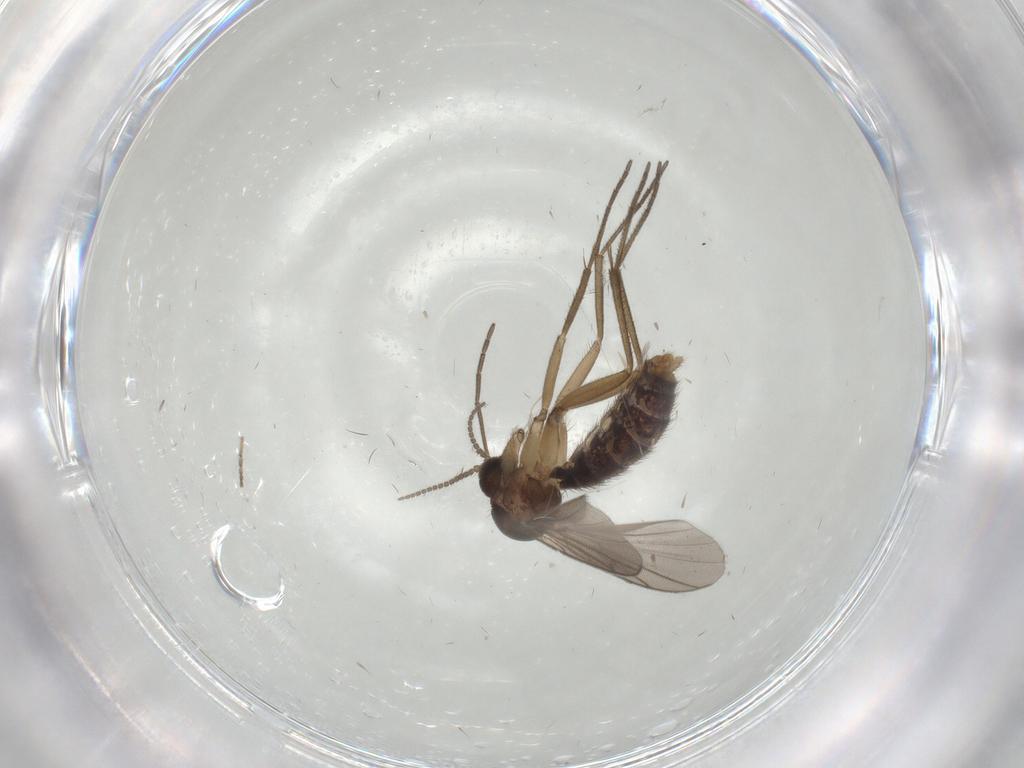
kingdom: Animalia
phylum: Arthropoda
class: Insecta
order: Diptera
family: Mycetophilidae
